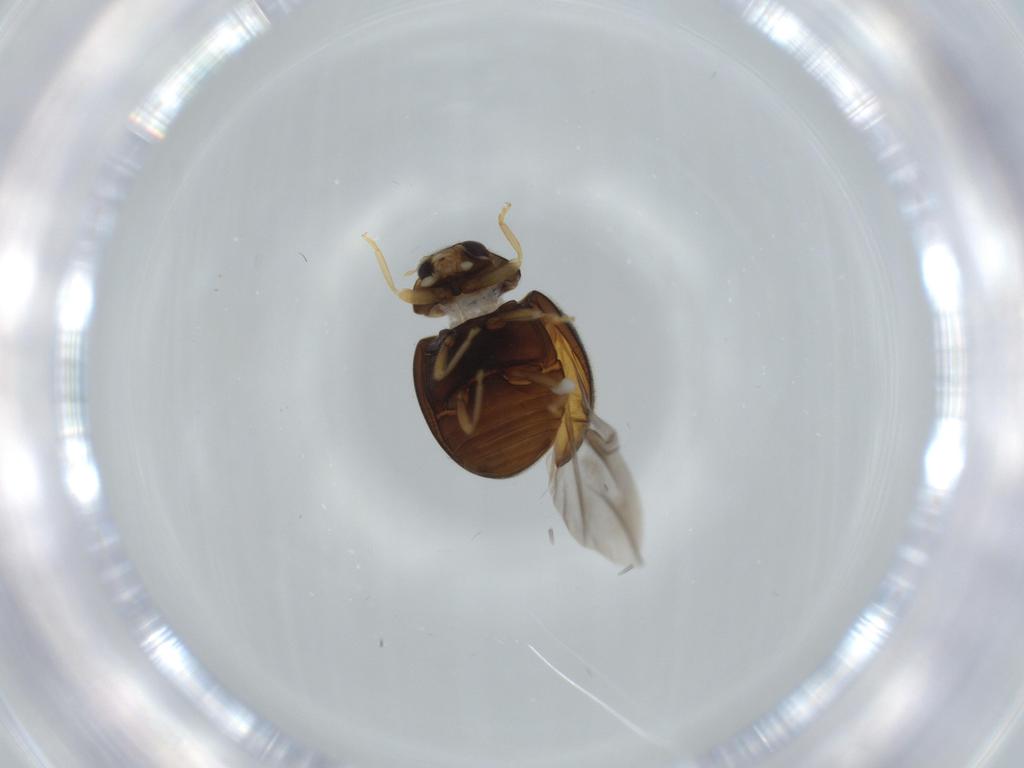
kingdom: Animalia
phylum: Arthropoda
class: Insecta
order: Coleoptera
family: Coccinellidae
